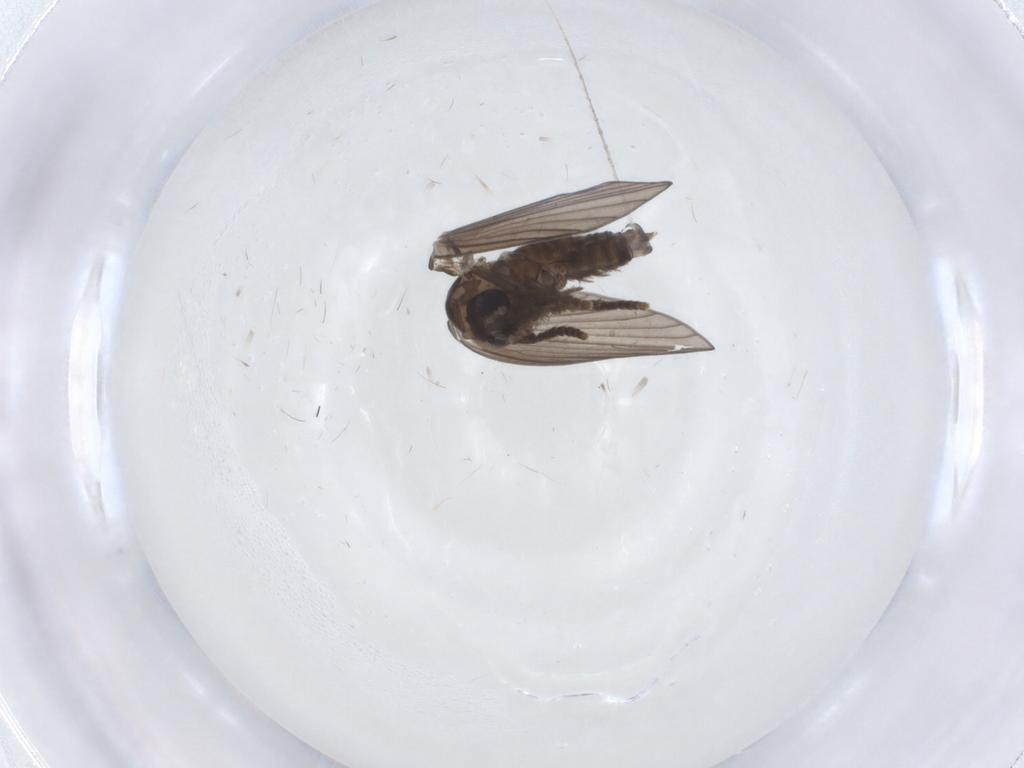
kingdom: Animalia
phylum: Arthropoda
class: Insecta
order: Diptera
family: Psychodidae
